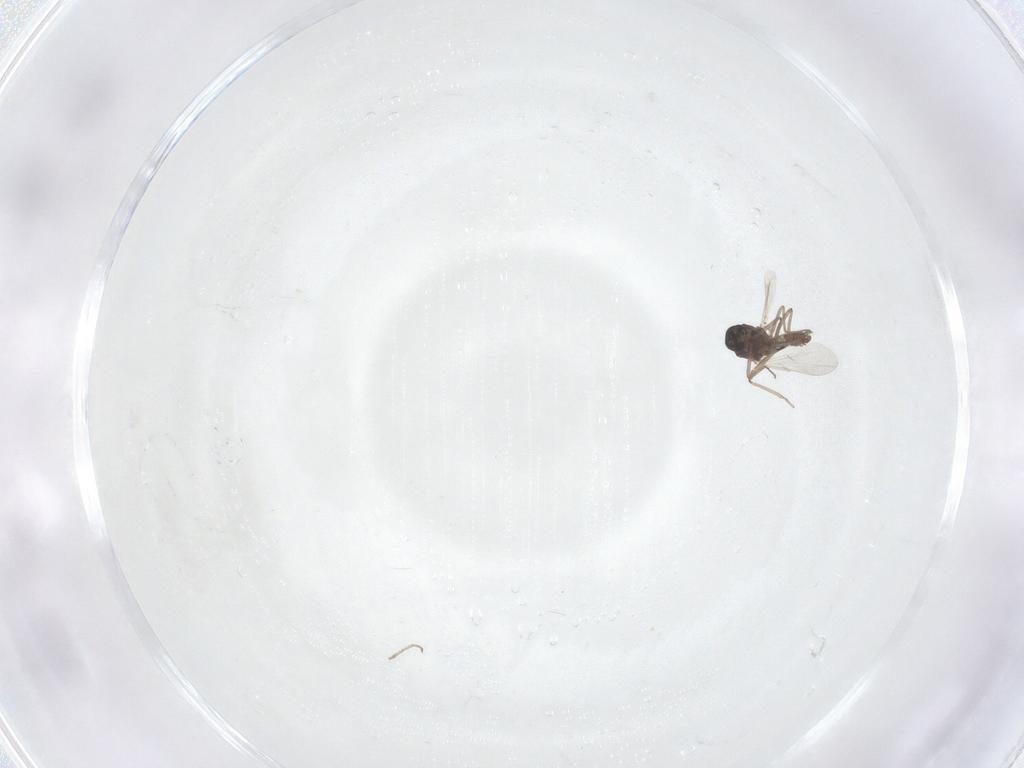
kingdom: Animalia
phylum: Arthropoda
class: Insecta
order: Diptera
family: Ceratopogonidae
